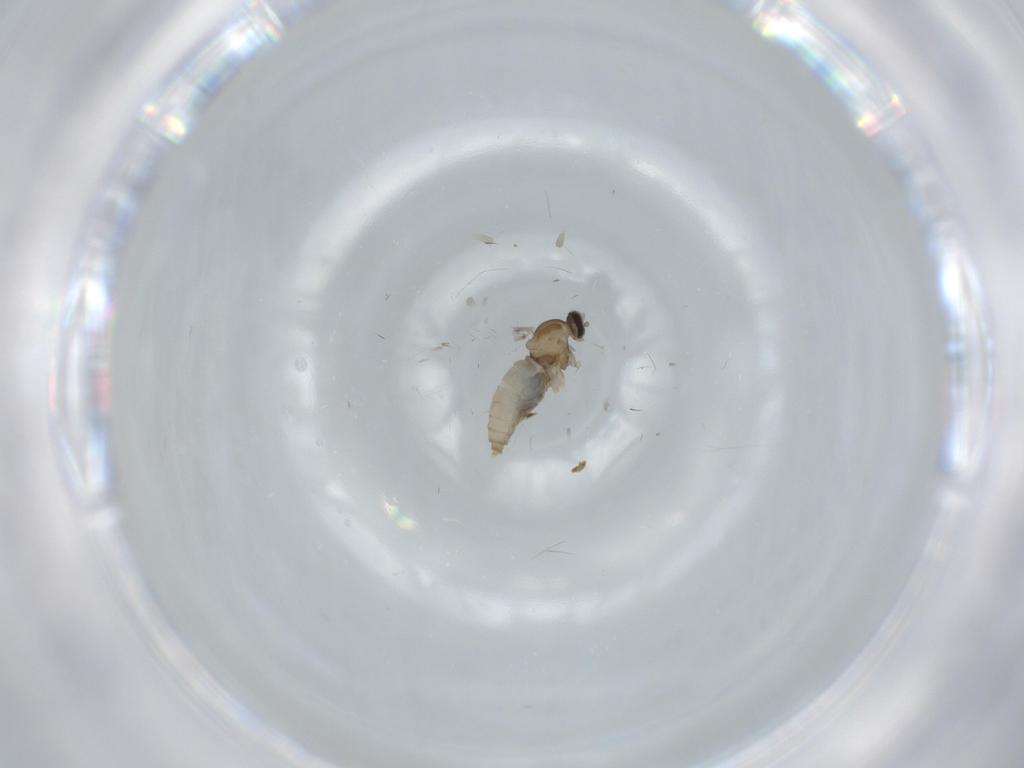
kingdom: Animalia
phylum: Arthropoda
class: Insecta
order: Diptera
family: Cecidomyiidae
